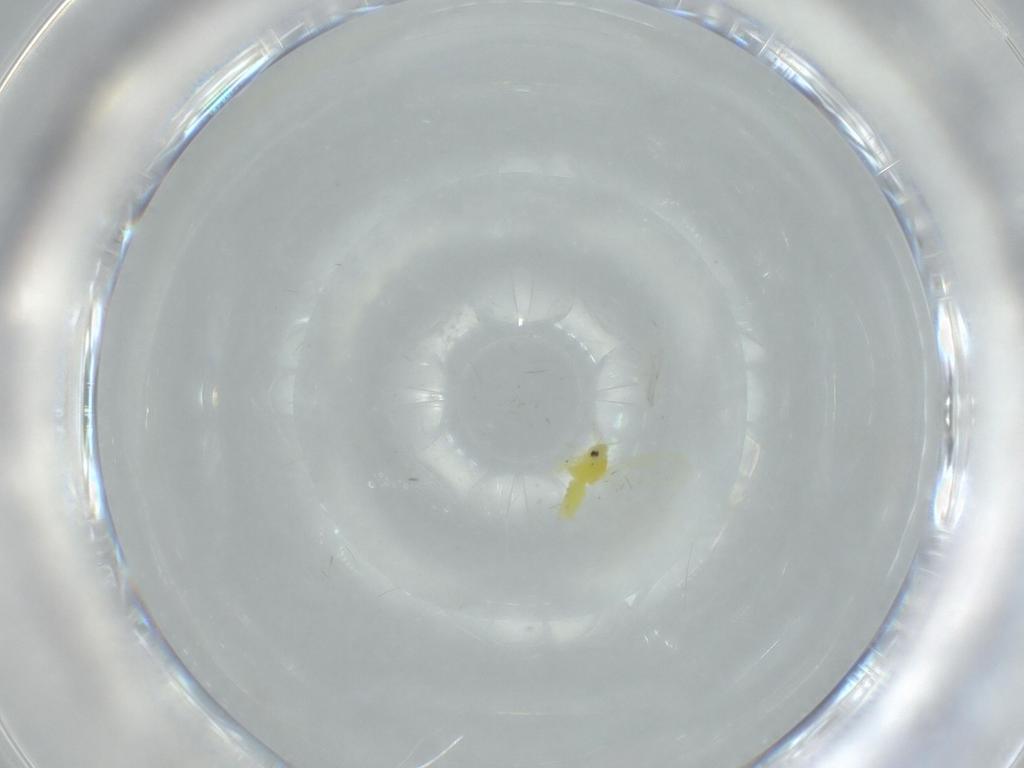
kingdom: Animalia
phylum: Arthropoda
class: Insecta
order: Hemiptera
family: Aleyrodidae
